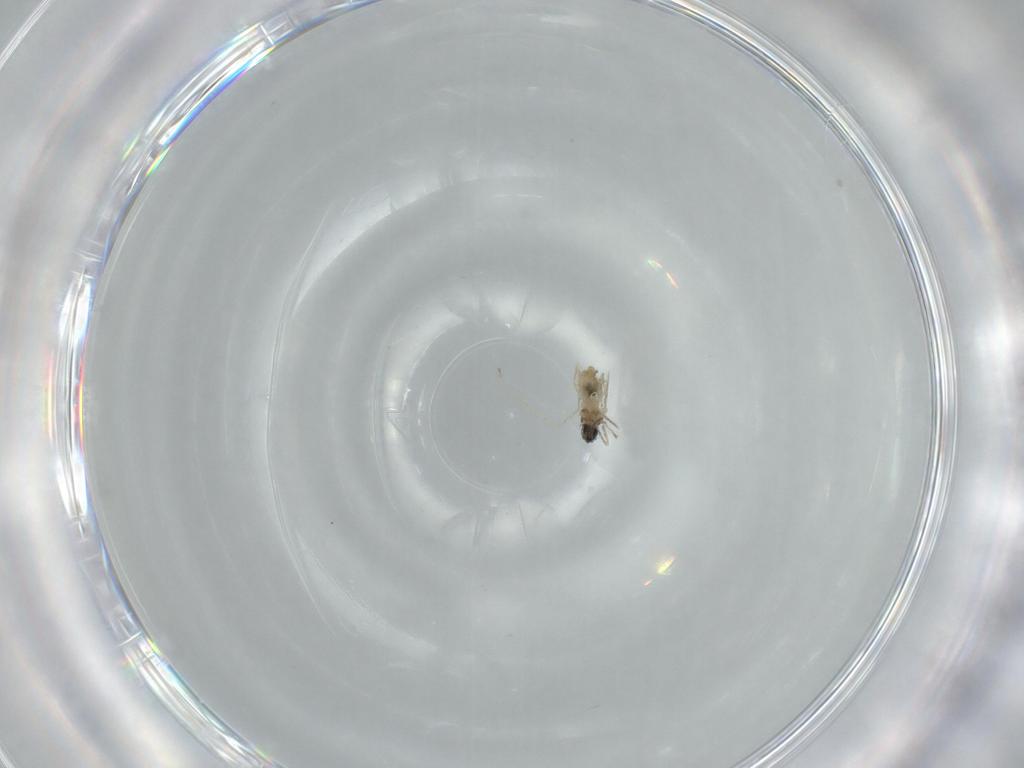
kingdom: Animalia
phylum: Arthropoda
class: Insecta
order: Diptera
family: Cecidomyiidae
